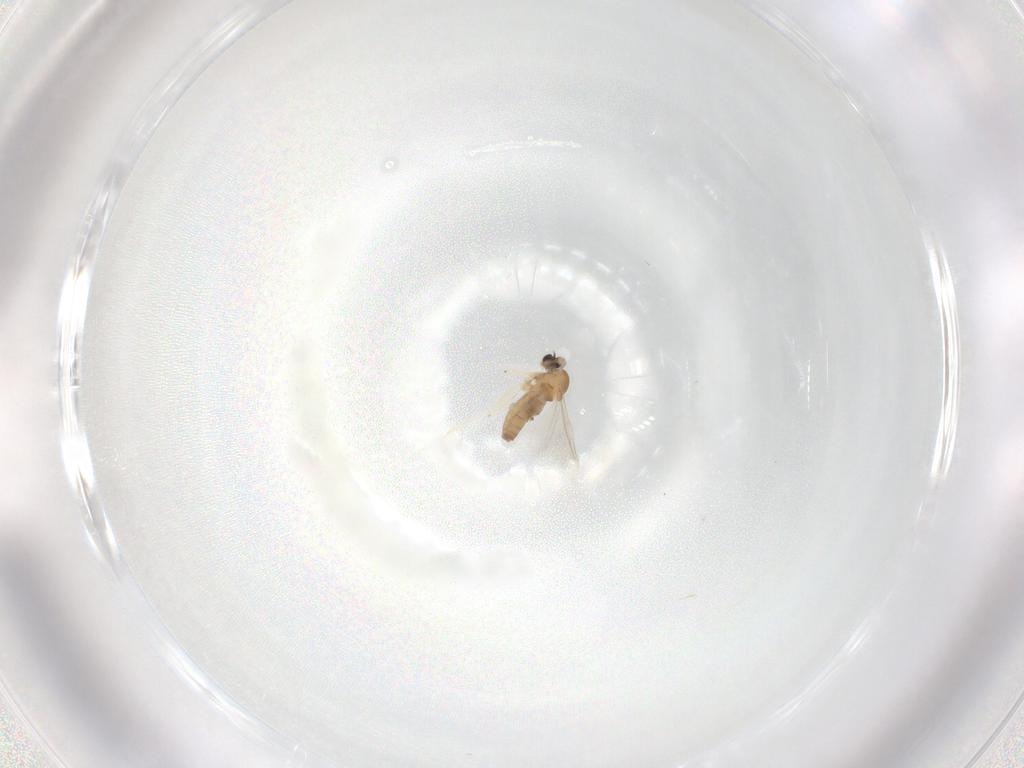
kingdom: Animalia
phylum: Arthropoda
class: Insecta
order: Diptera
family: Cecidomyiidae
